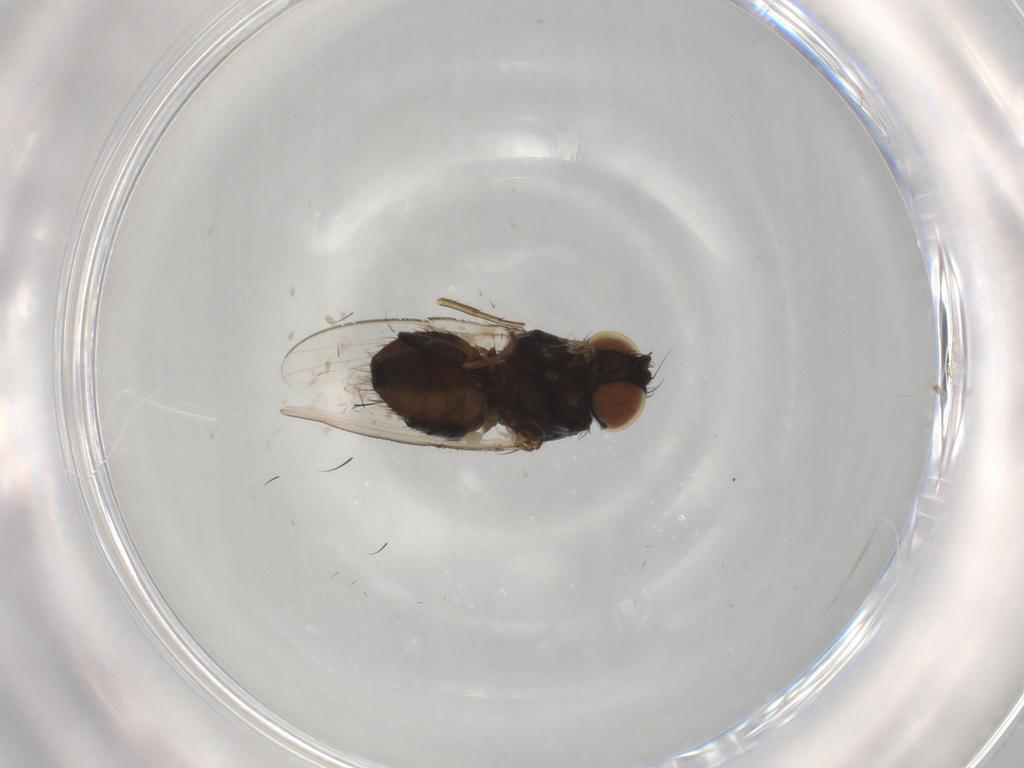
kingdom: Animalia
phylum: Arthropoda
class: Insecta
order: Diptera
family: Phoridae
